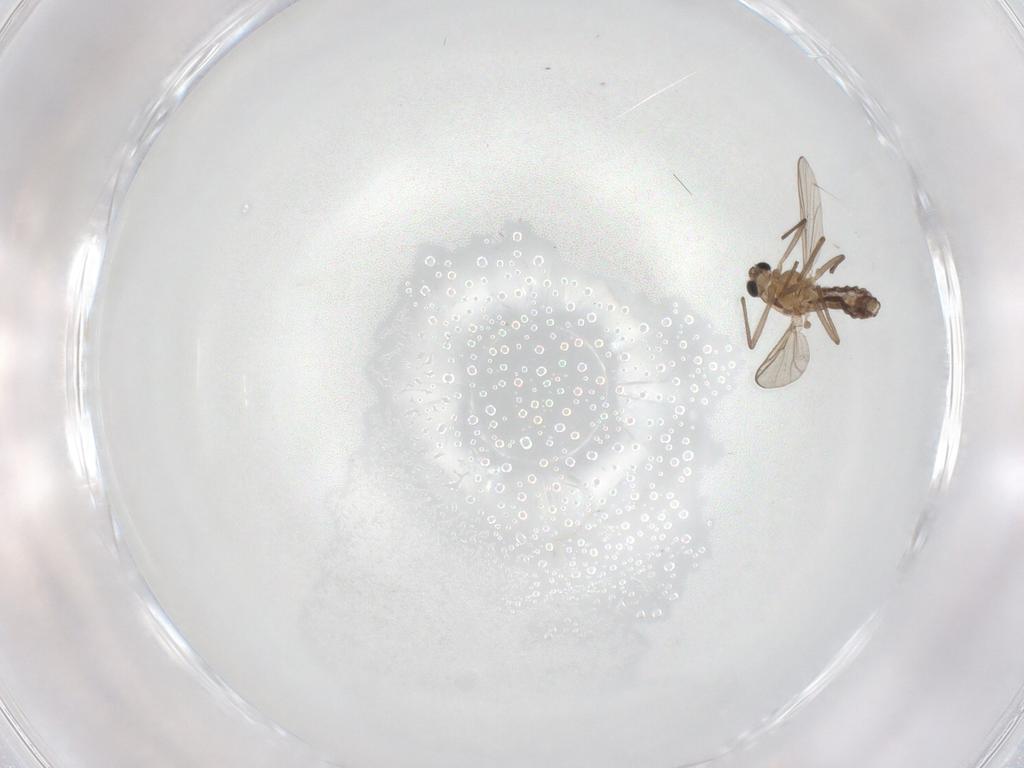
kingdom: Animalia
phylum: Arthropoda
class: Insecta
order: Diptera
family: Chironomidae
